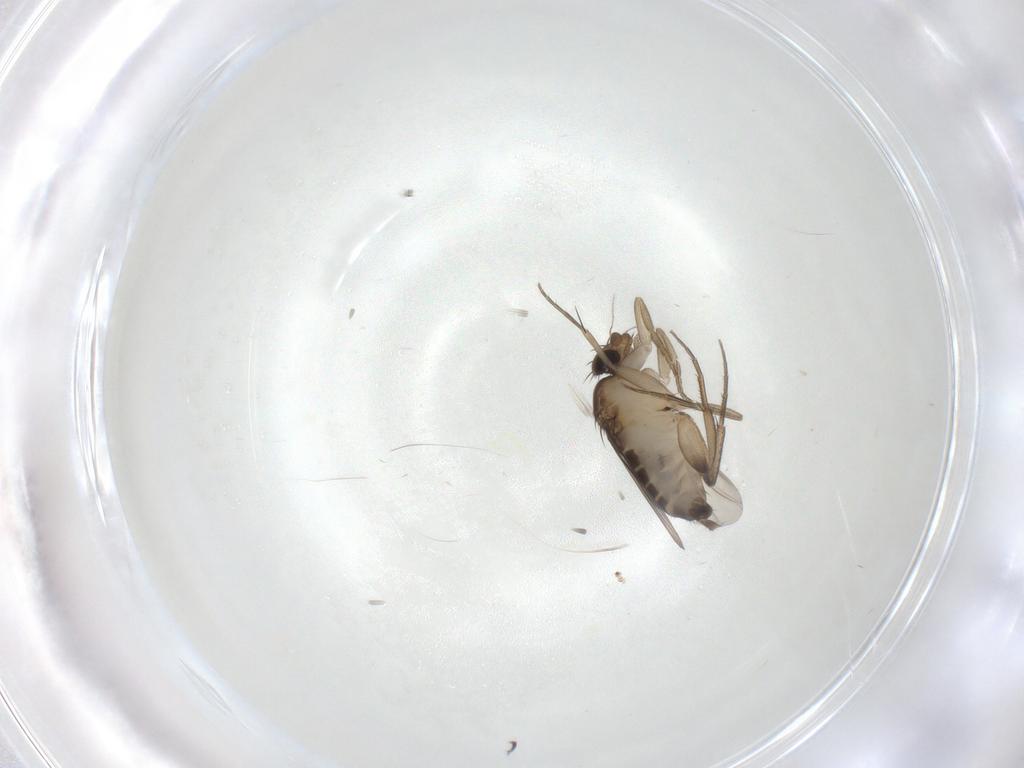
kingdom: Animalia
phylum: Arthropoda
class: Insecta
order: Diptera
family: Phoridae
